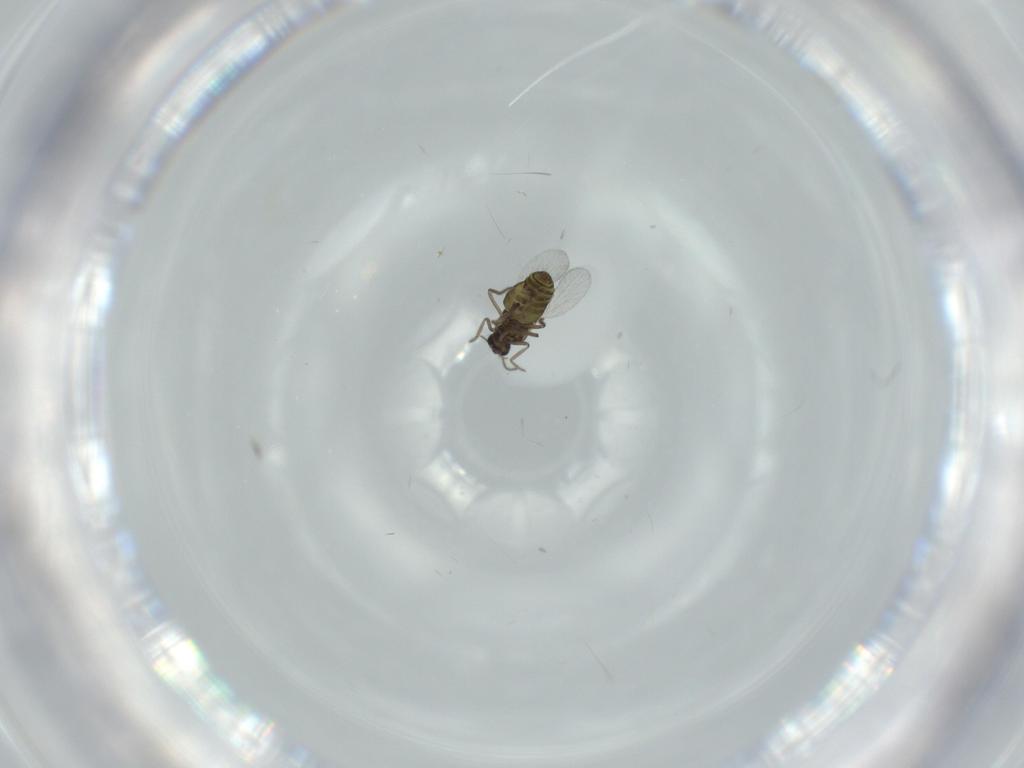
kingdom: Animalia
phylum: Arthropoda
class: Insecta
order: Diptera
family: Ceratopogonidae
